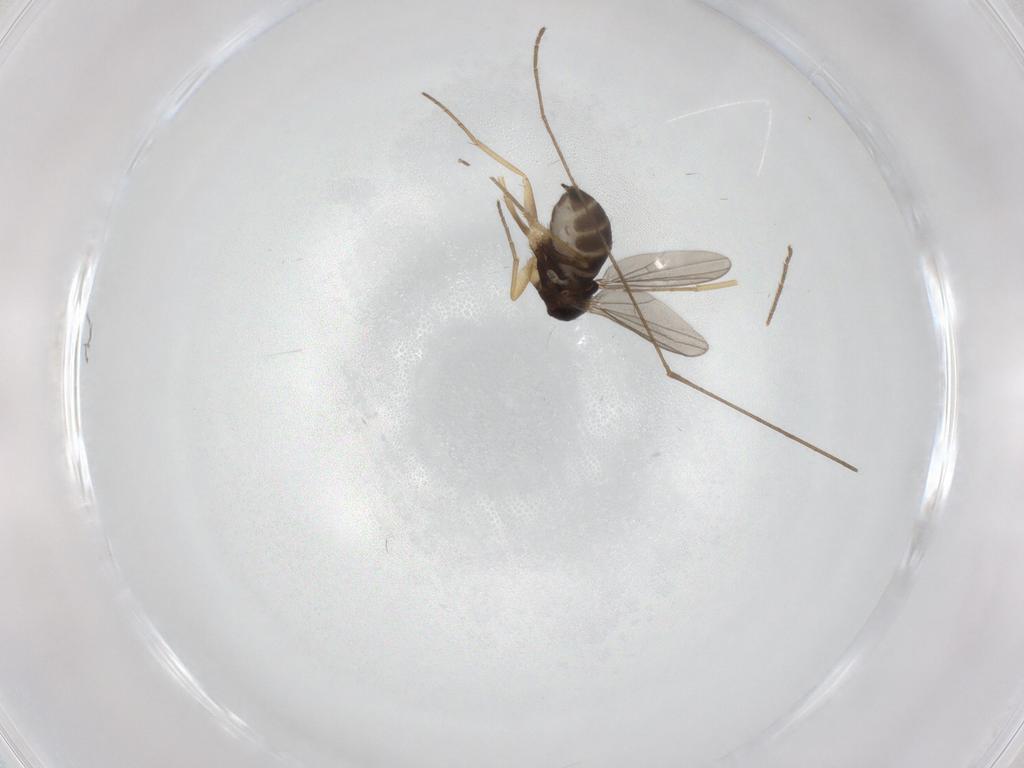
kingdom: Animalia
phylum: Arthropoda
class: Insecta
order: Diptera
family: Dolichopodidae
